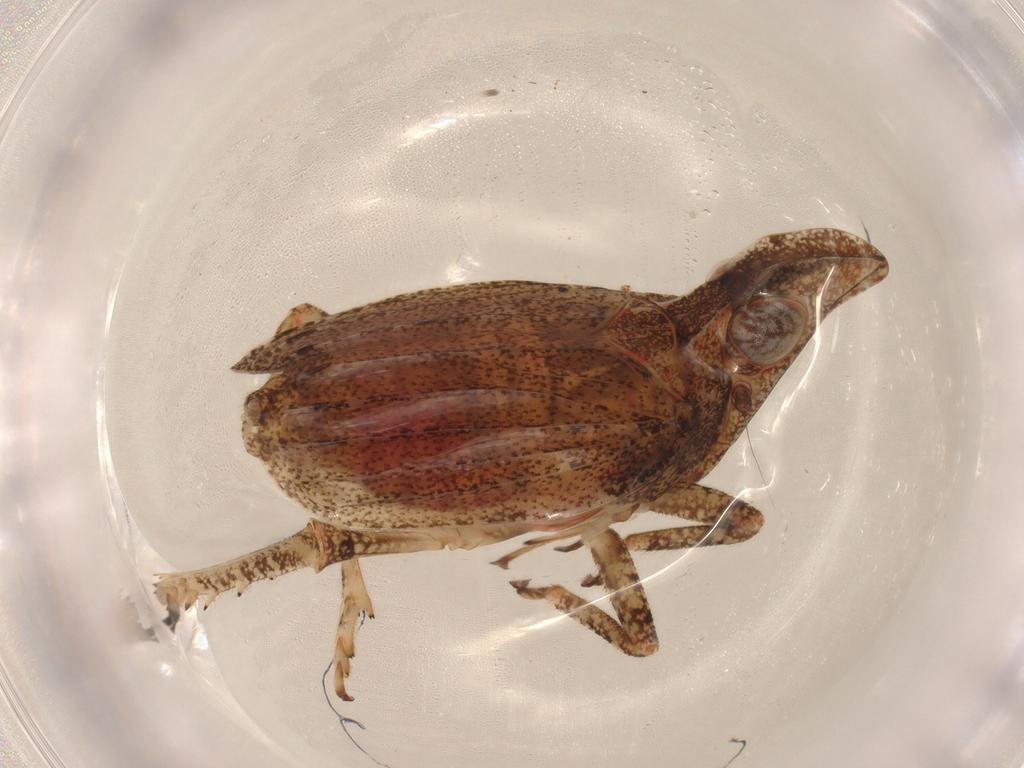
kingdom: Animalia
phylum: Arthropoda
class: Insecta
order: Hemiptera
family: Tropiduchidae
